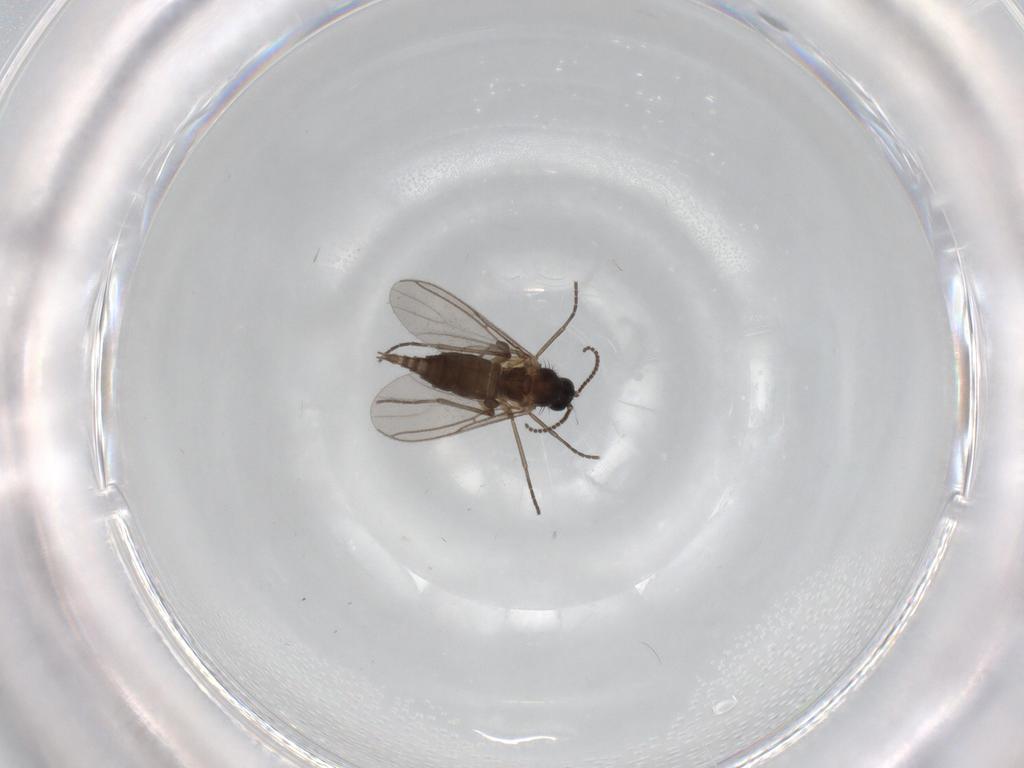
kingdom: Animalia
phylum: Arthropoda
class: Insecta
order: Diptera
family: Sciaridae
